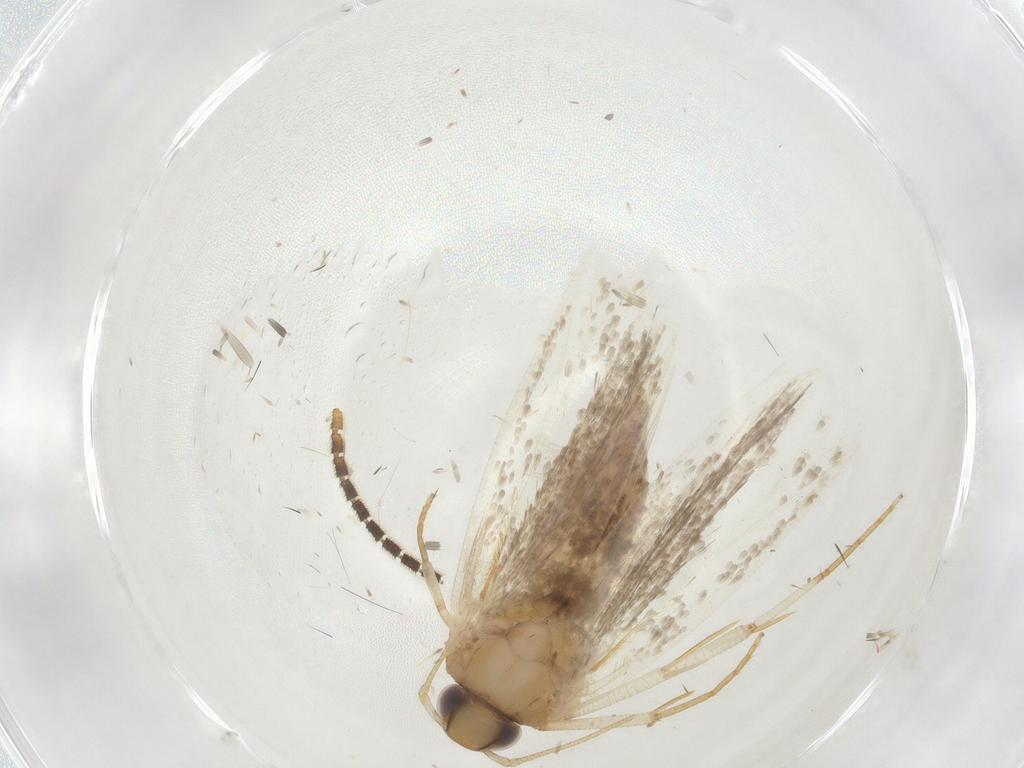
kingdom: Animalia
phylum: Arthropoda
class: Insecta
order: Lepidoptera
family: Gelechiidae
